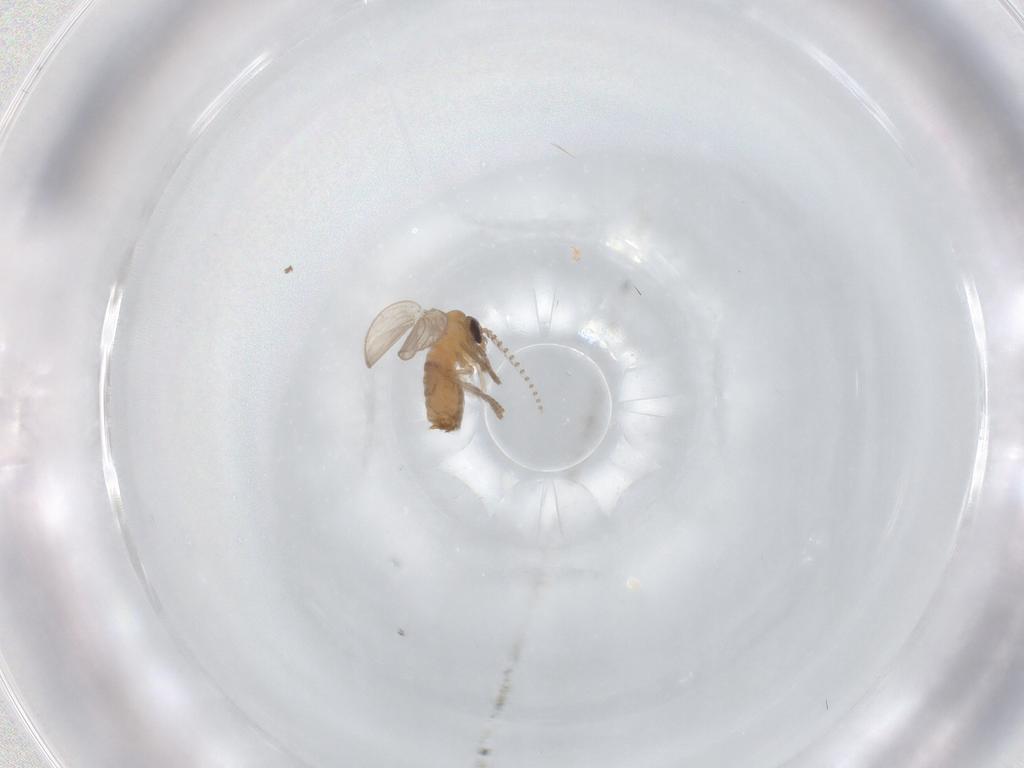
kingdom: Animalia
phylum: Arthropoda
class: Insecta
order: Diptera
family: Psychodidae
